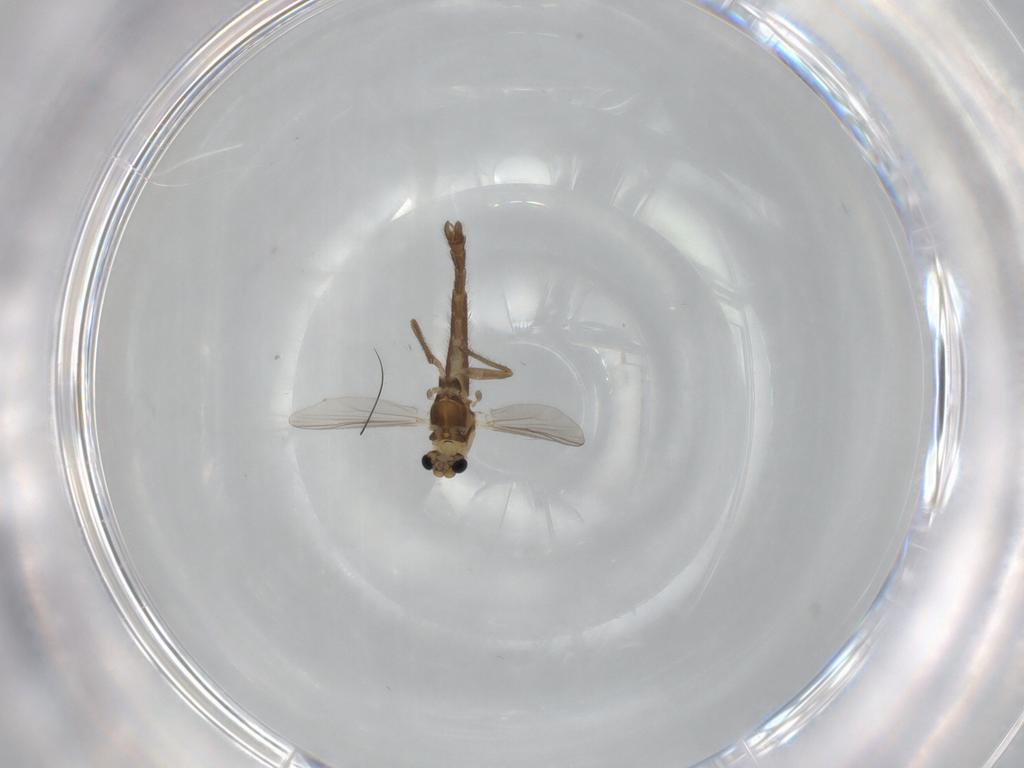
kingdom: Animalia
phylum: Arthropoda
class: Insecta
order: Diptera
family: Chironomidae
